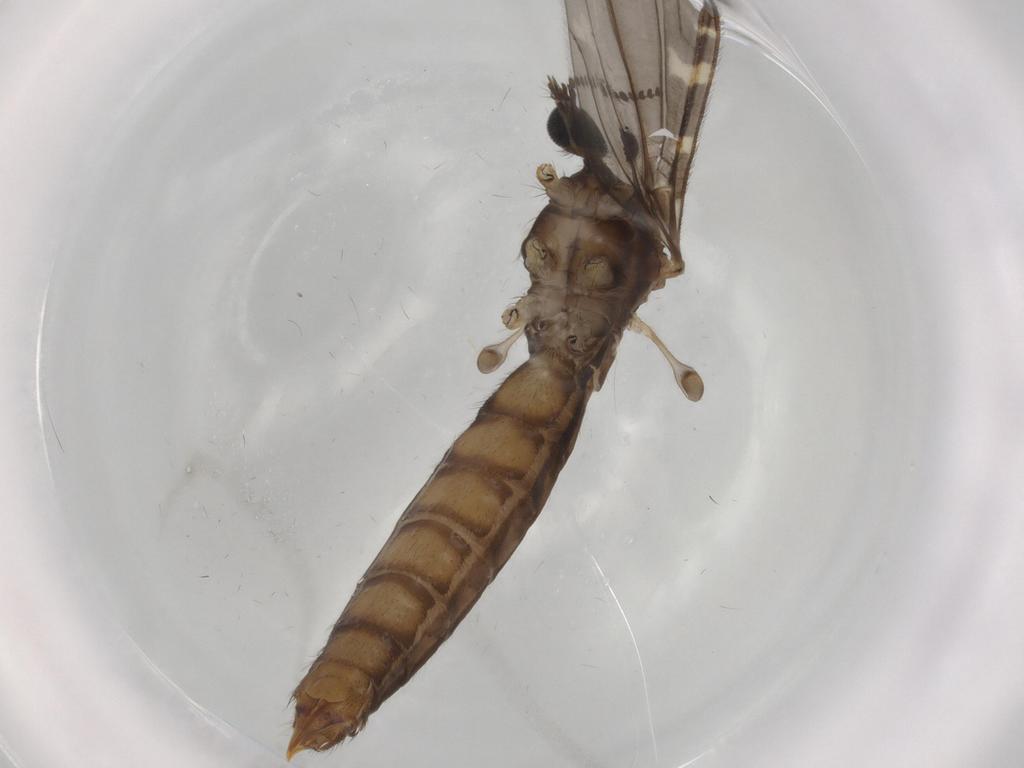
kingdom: Animalia
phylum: Arthropoda
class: Insecta
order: Diptera
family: Limoniidae
